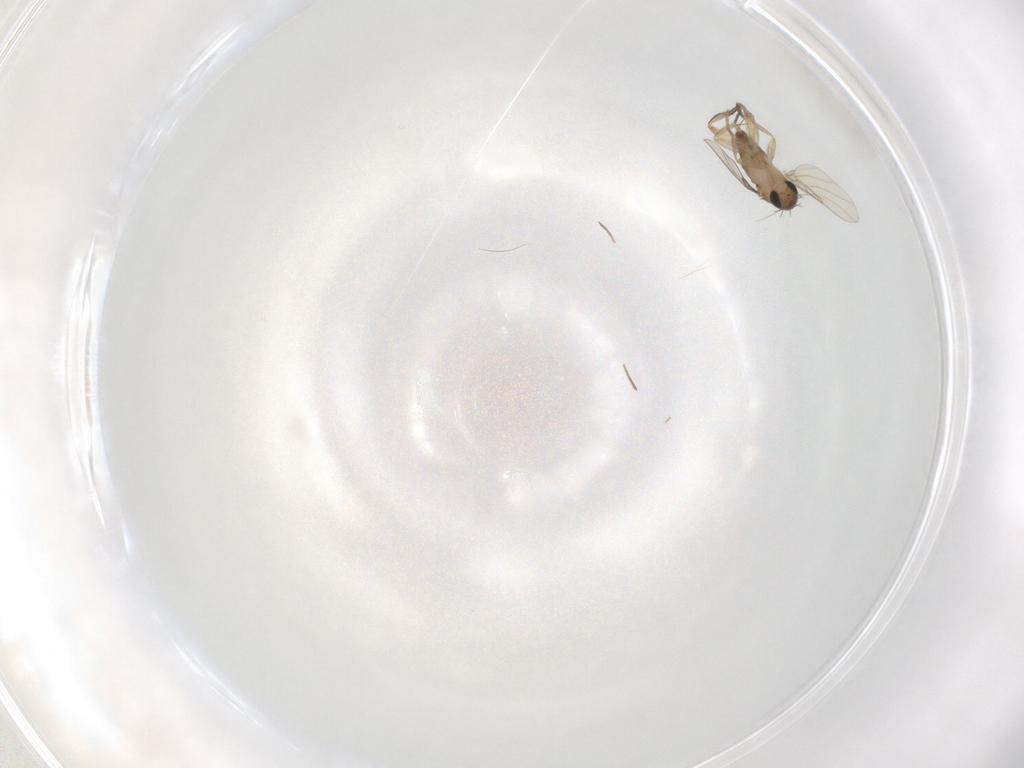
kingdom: Animalia
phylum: Arthropoda
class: Insecta
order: Diptera
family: Phoridae
